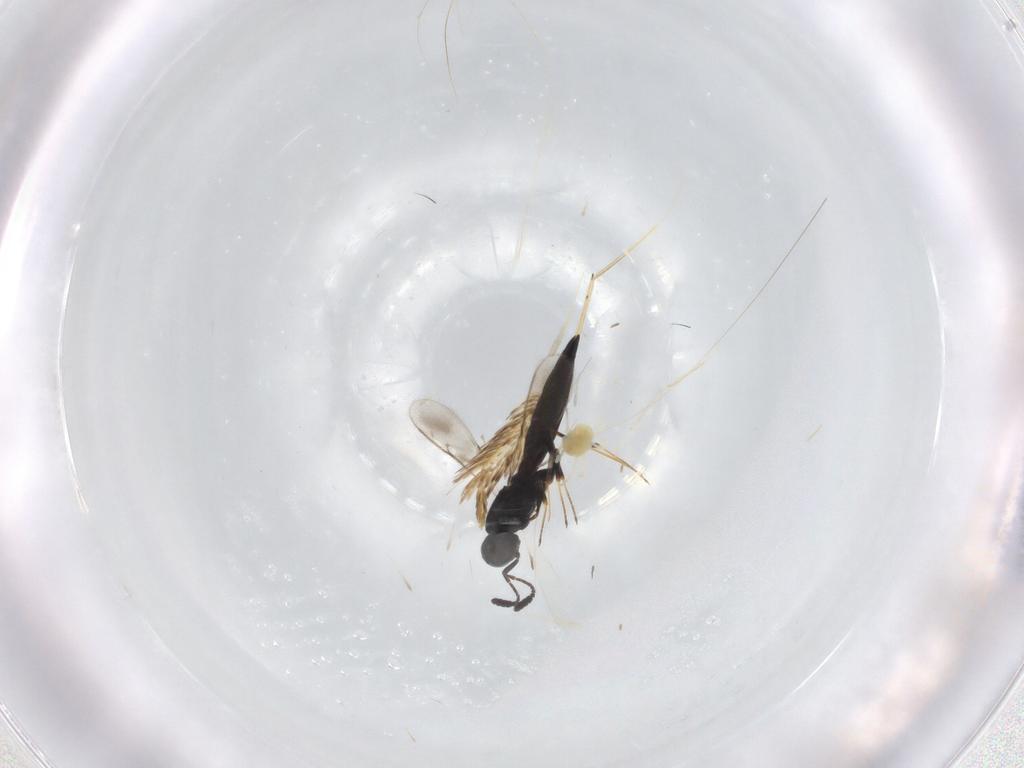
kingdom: Animalia
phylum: Arthropoda
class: Insecta
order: Hymenoptera
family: Scelionidae
